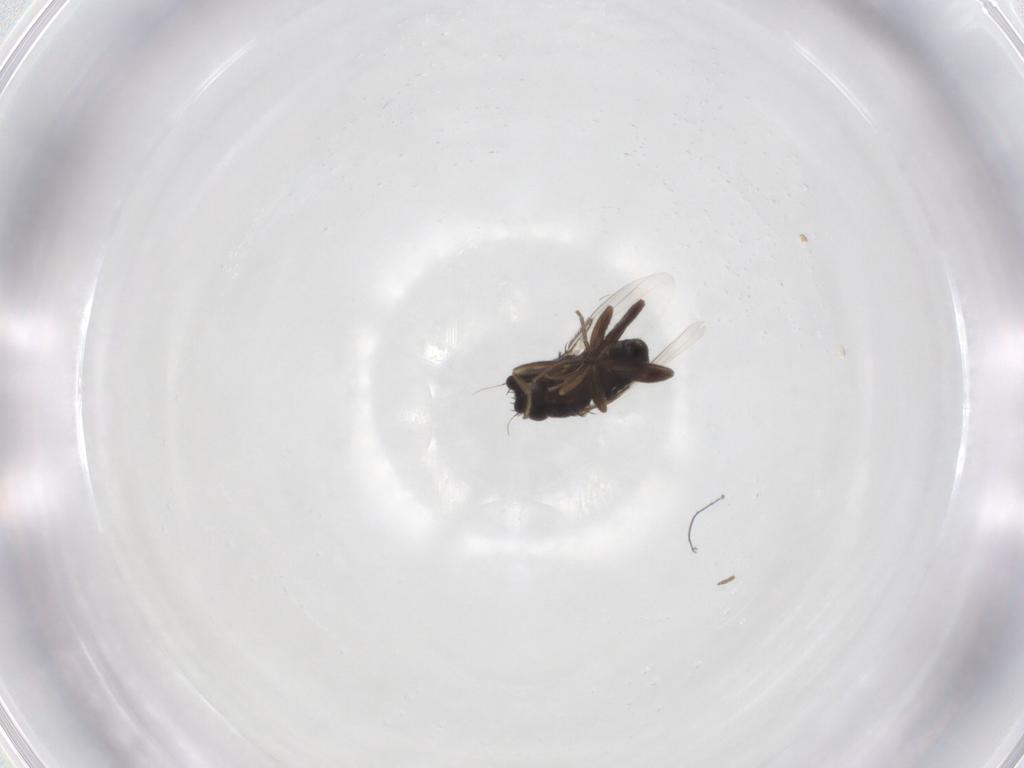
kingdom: Animalia
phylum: Arthropoda
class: Insecta
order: Diptera
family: Phoridae
